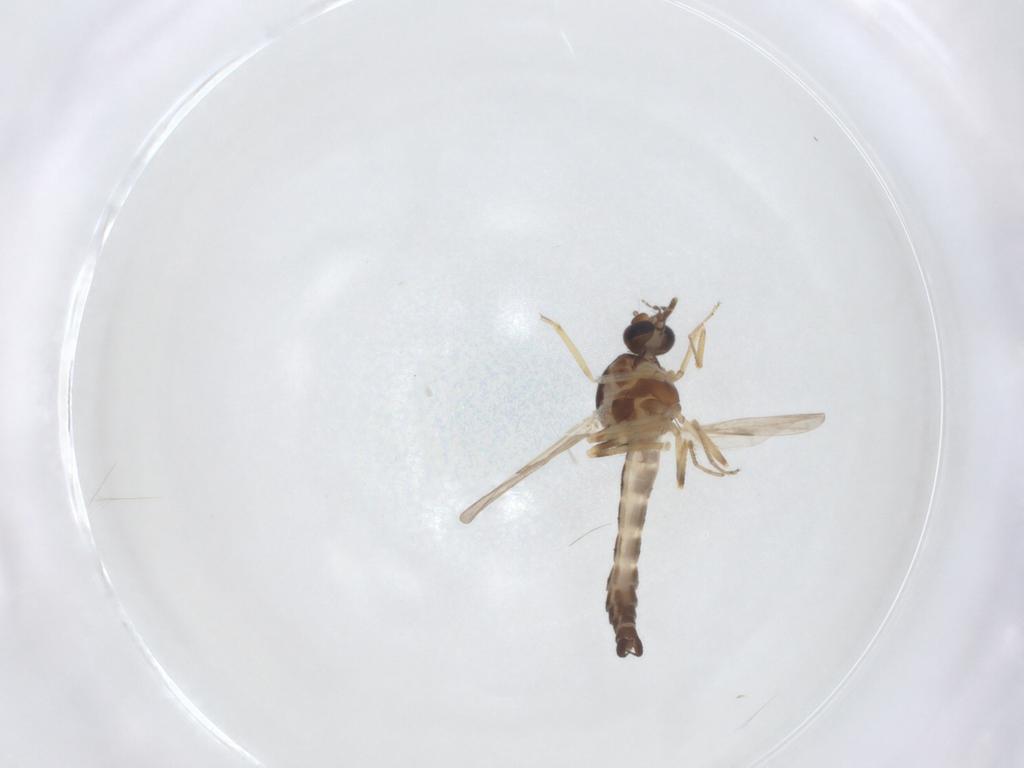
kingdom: Animalia
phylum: Arthropoda
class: Insecta
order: Diptera
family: Ceratopogonidae
